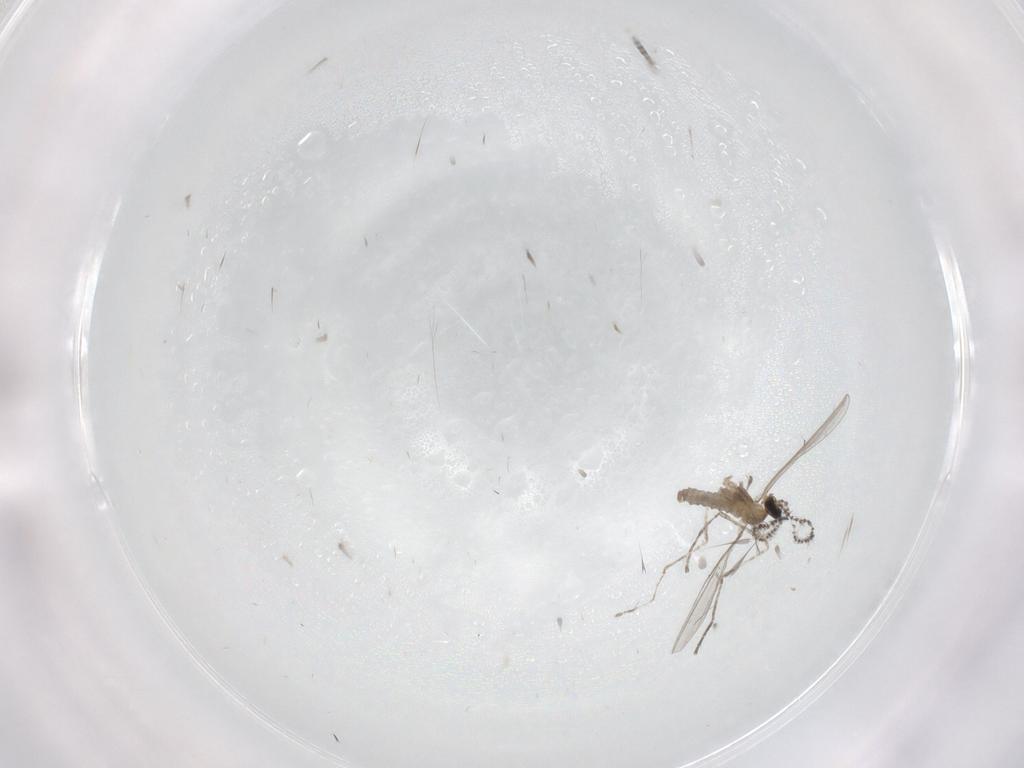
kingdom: Animalia
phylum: Arthropoda
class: Insecta
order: Diptera
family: Cecidomyiidae
